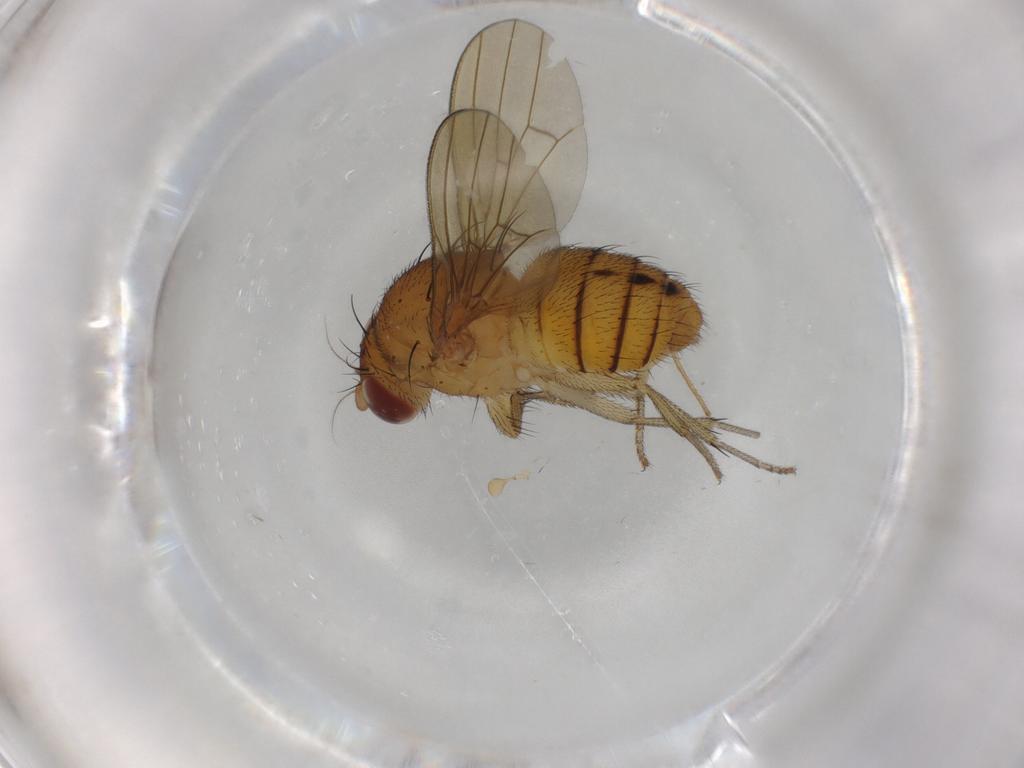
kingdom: Animalia
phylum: Arthropoda
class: Insecta
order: Diptera
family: Lauxaniidae
